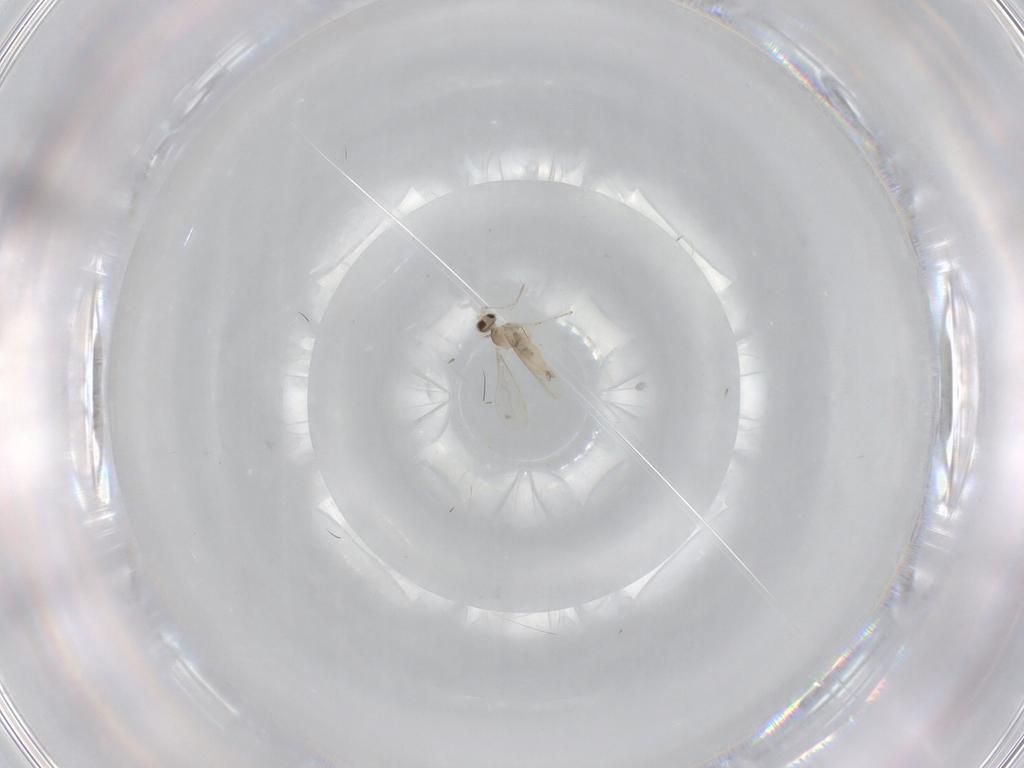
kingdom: Animalia
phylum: Arthropoda
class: Insecta
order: Diptera
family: Cecidomyiidae
